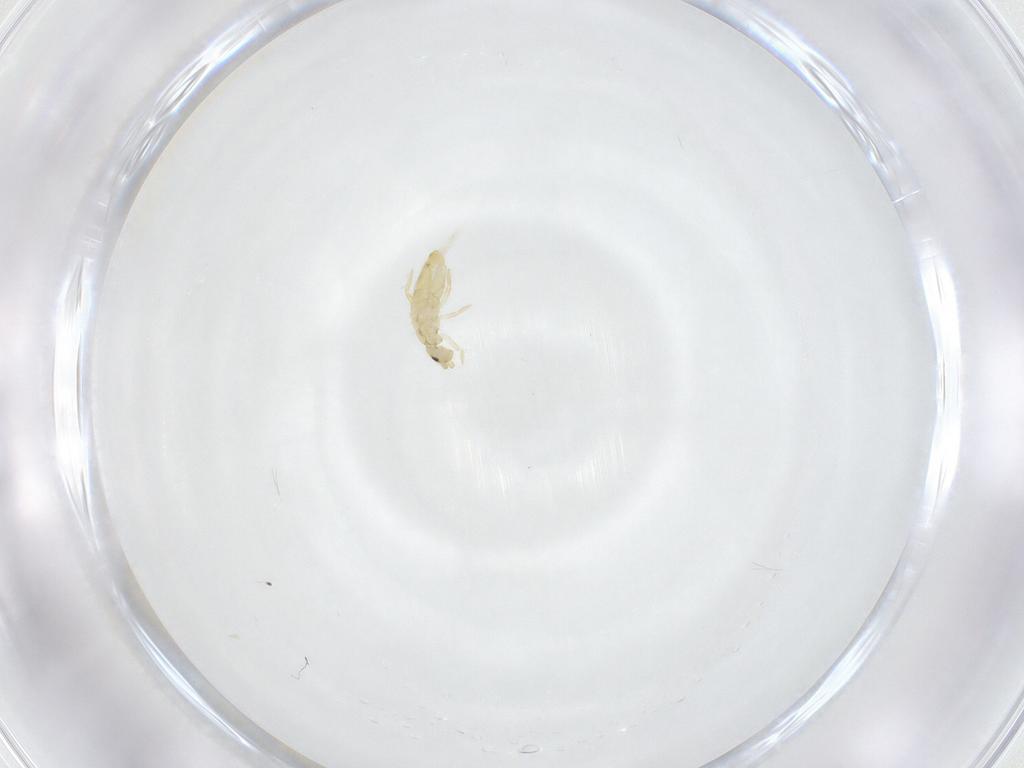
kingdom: Animalia
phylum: Arthropoda
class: Collembola
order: Entomobryomorpha
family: Entomobryidae
